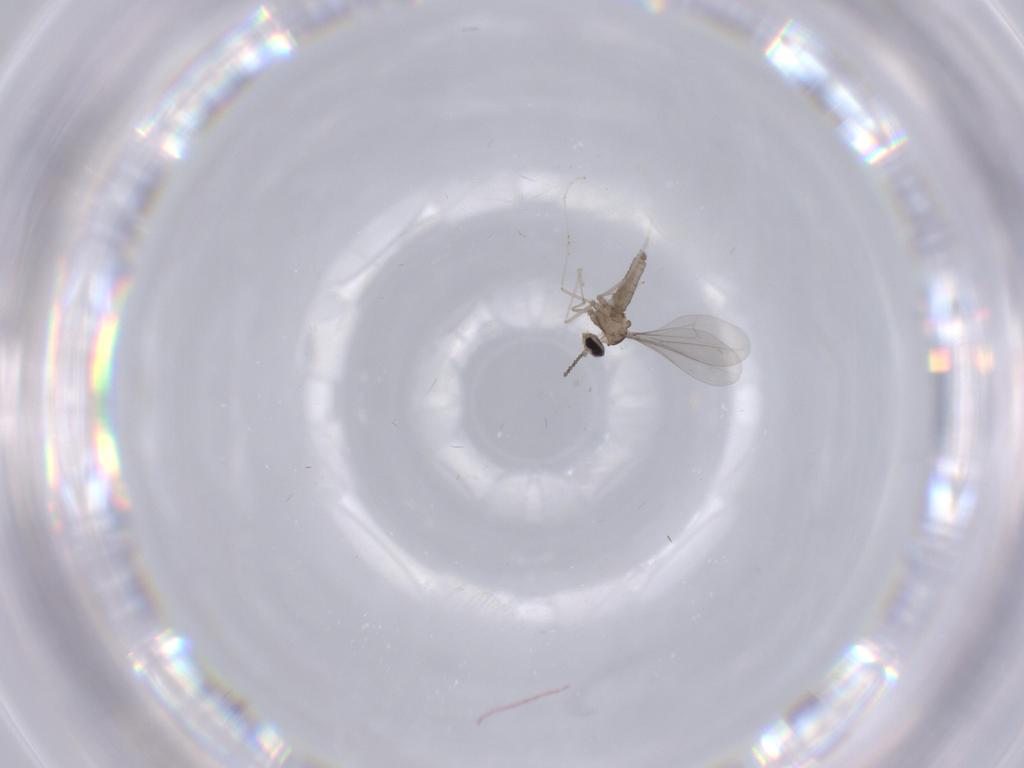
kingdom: Animalia
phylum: Arthropoda
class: Insecta
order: Diptera
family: Cecidomyiidae
